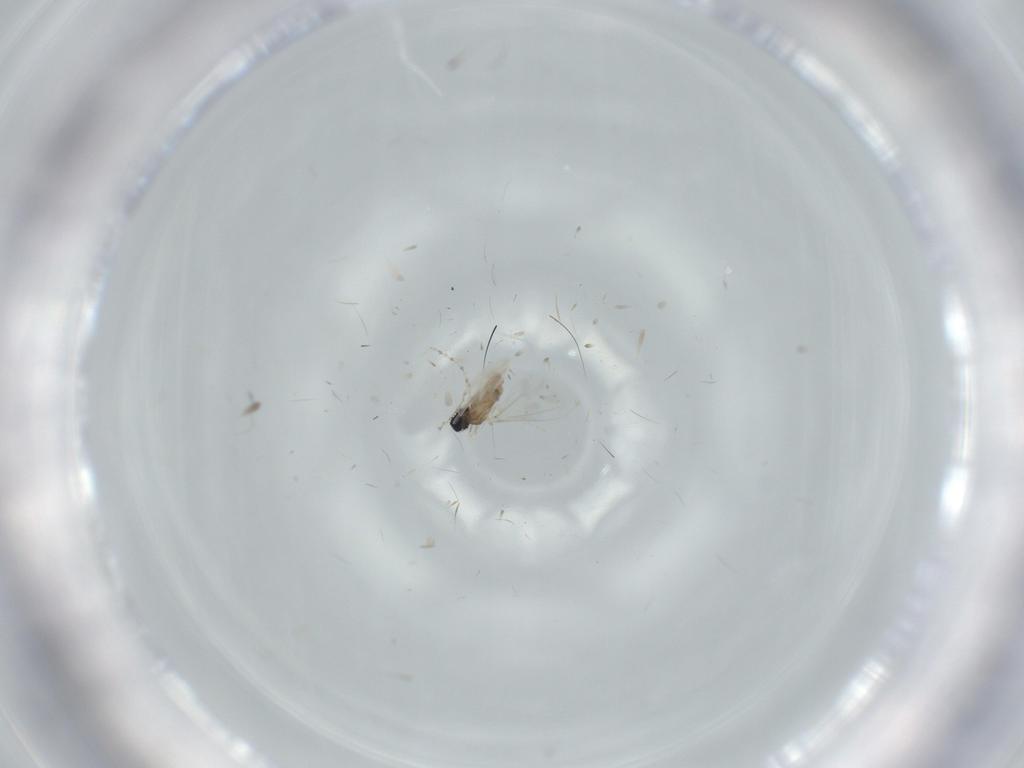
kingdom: Animalia
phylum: Arthropoda
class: Insecta
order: Diptera
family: Cecidomyiidae
